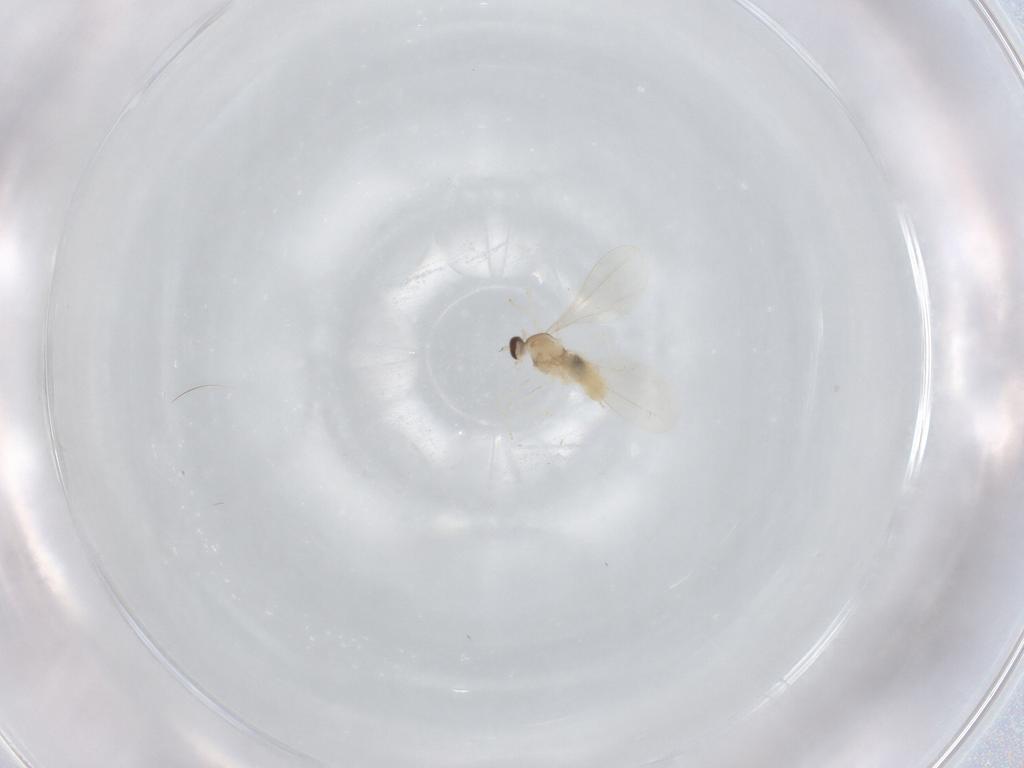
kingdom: Animalia
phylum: Arthropoda
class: Insecta
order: Diptera
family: Cecidomyiidae
